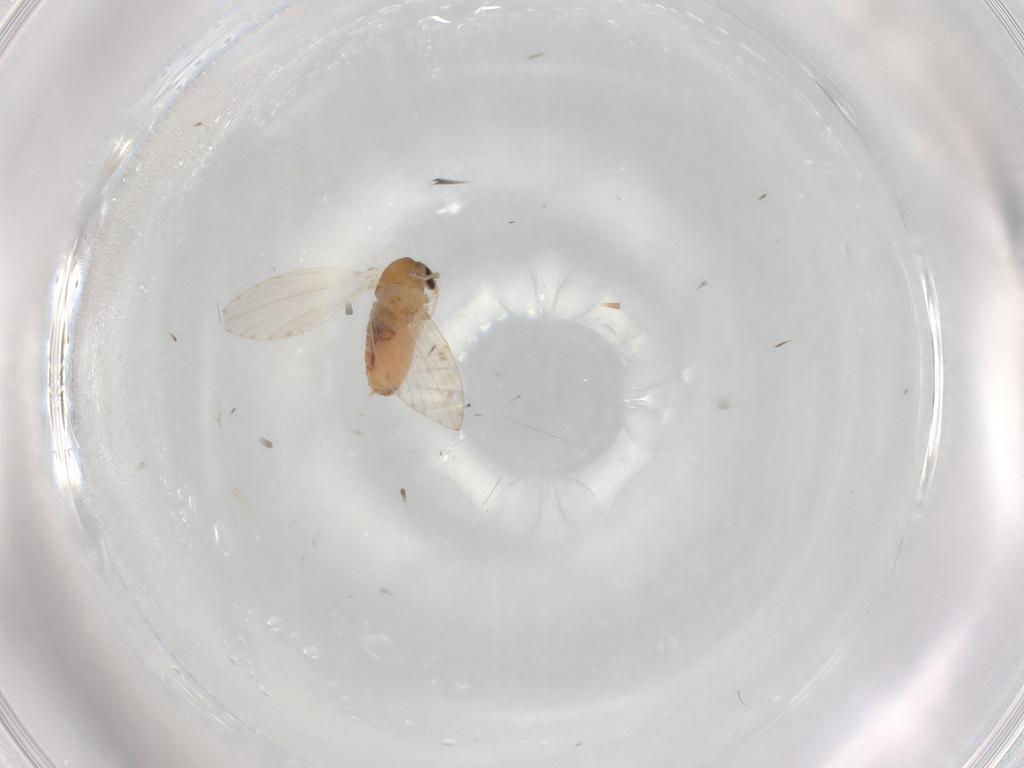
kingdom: Animalia
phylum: Arthropoda
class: Insecta
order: Diptera
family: Psychodidae
